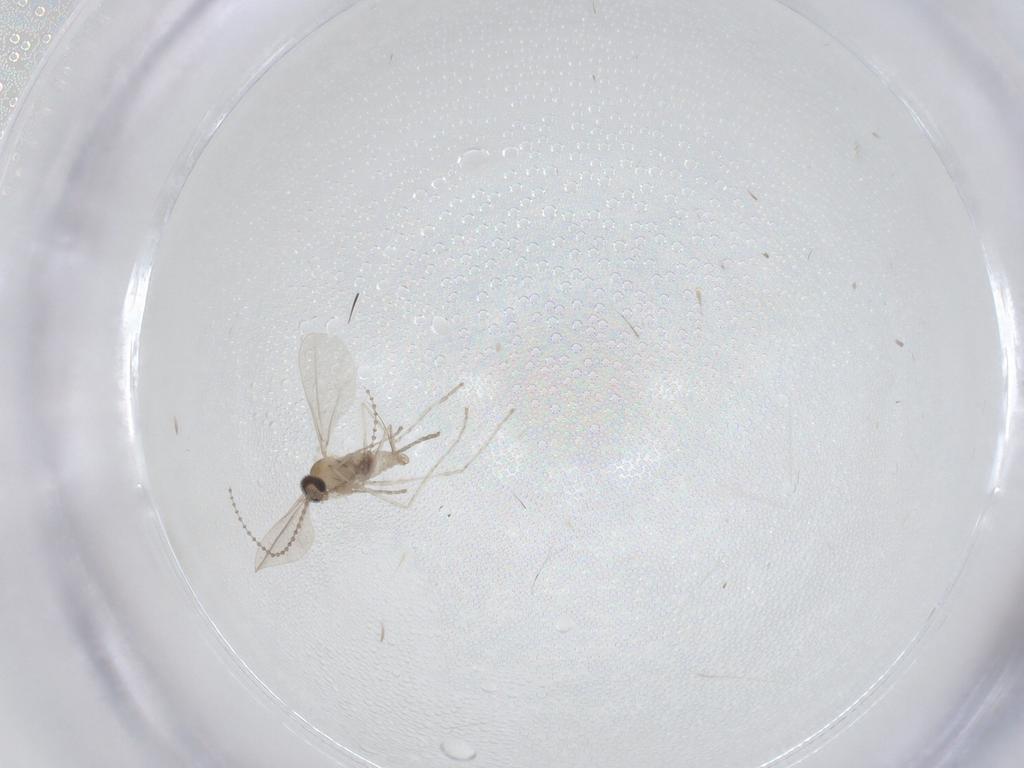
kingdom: Animalia
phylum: Arthropoda
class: Insecta
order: Diptera
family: Cecidomyiidae
